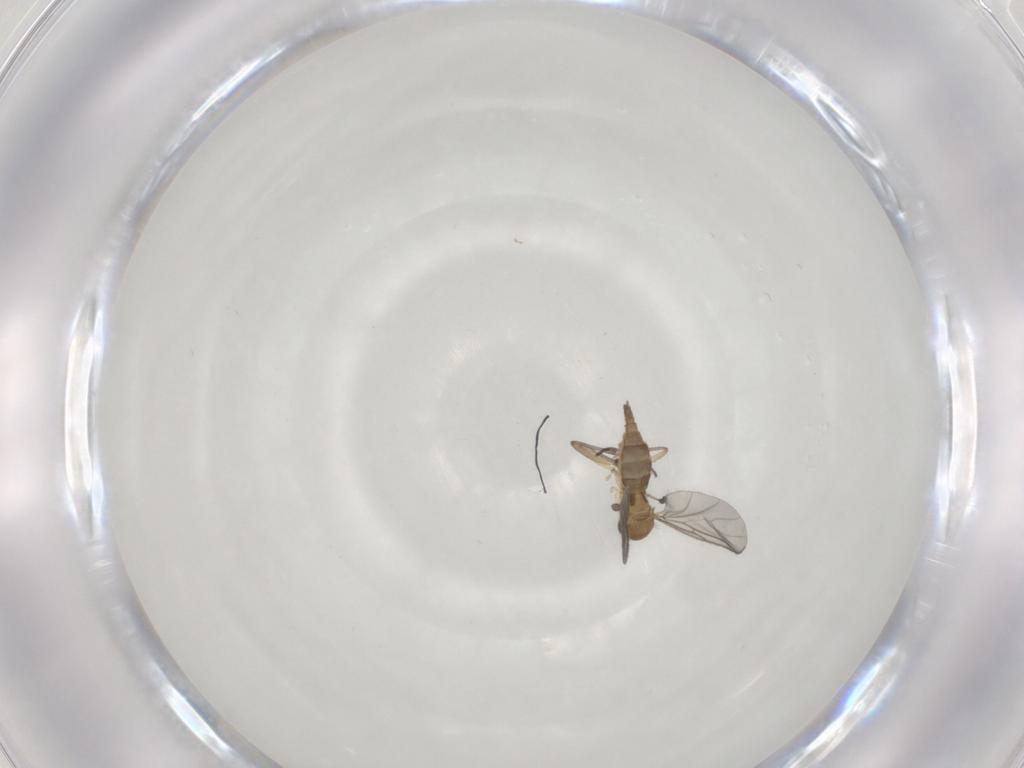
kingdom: Animalia
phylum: Arthropoda
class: Insecta
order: Diptera
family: Sciaridae
